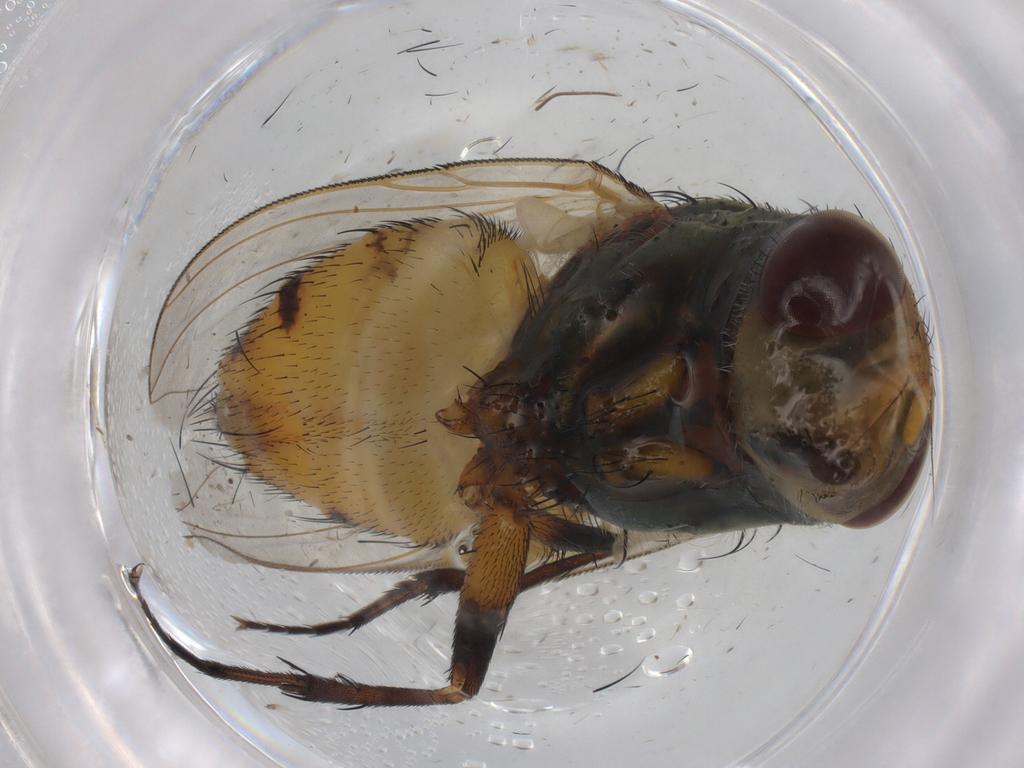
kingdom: Animalia
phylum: Arthropoda
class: Insecta
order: Diptera
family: Calliphoridae
